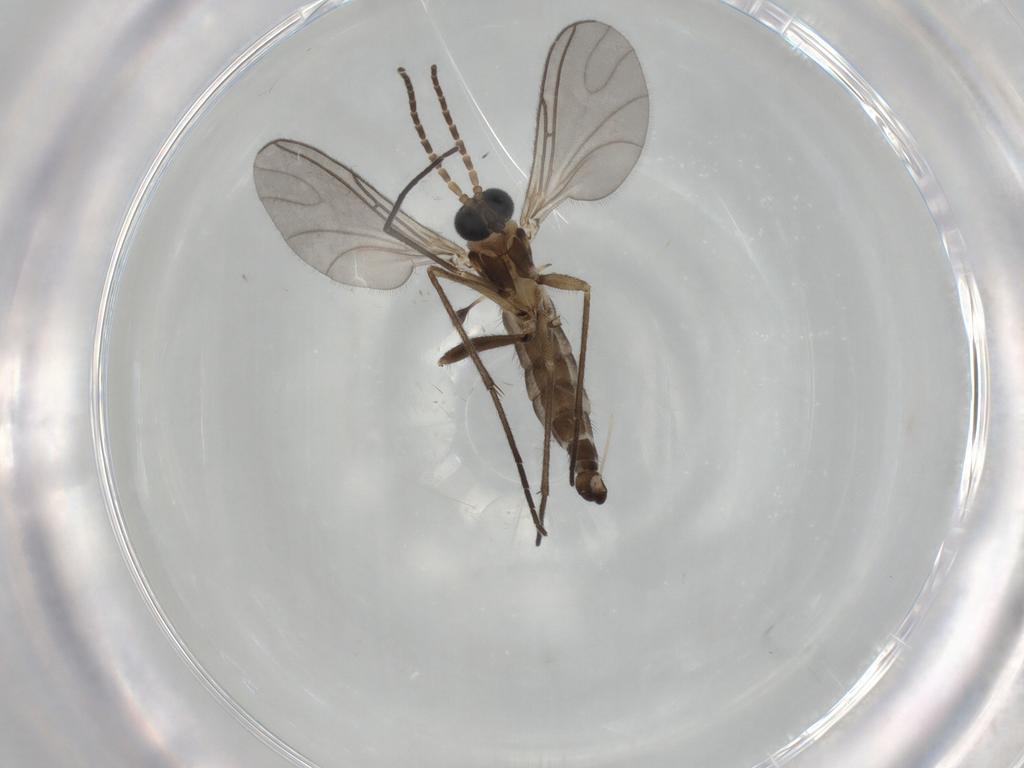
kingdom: Animalia
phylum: Arthropoda
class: Insecta
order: Diptera
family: Sciaridae
